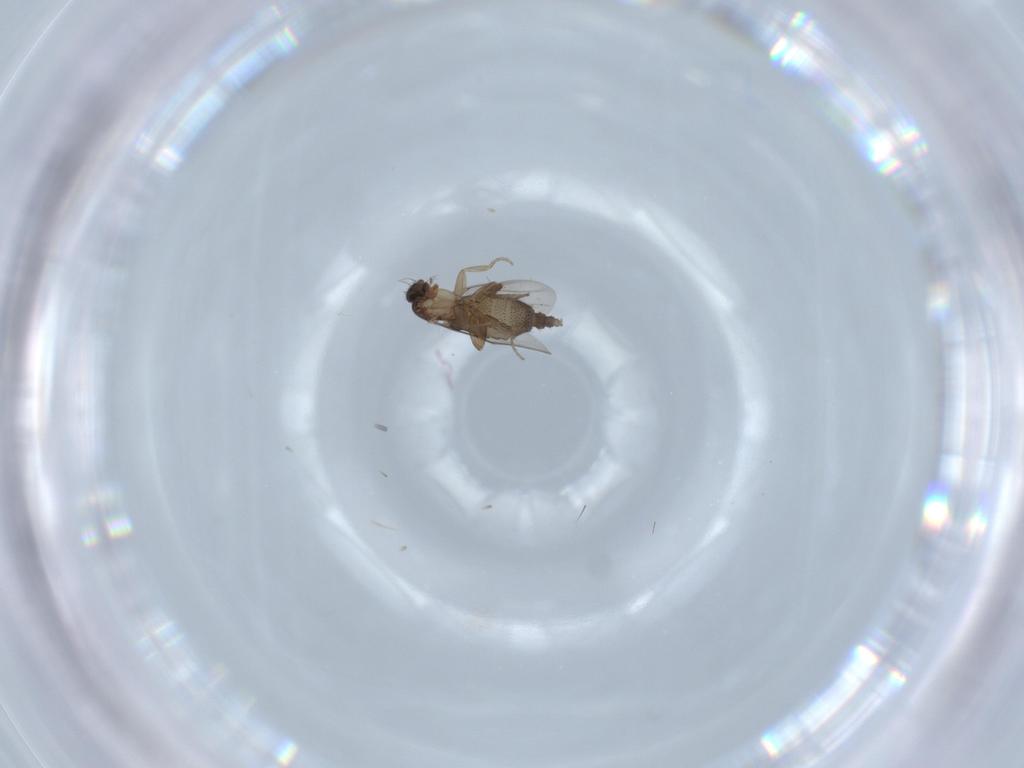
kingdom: Animalia
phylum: Arthropoda
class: Insecta
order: Diptera
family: Phoridae
